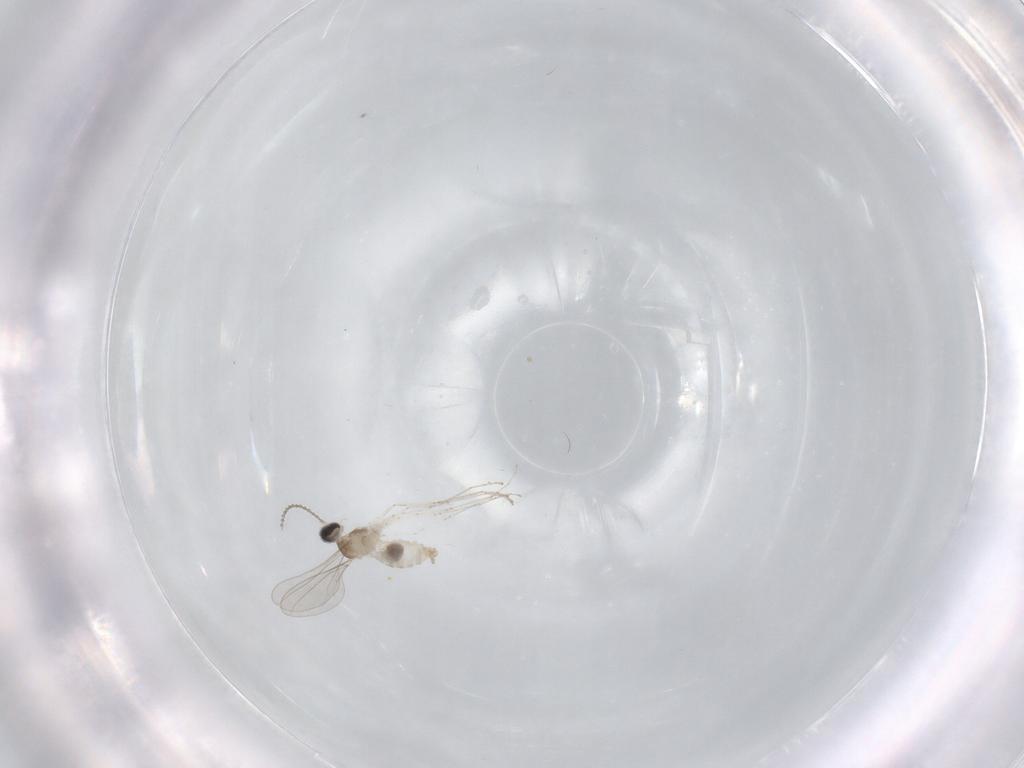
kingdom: Animalia
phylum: Arthropoda
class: Insecta
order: Diptera
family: Cecidomyiidae
